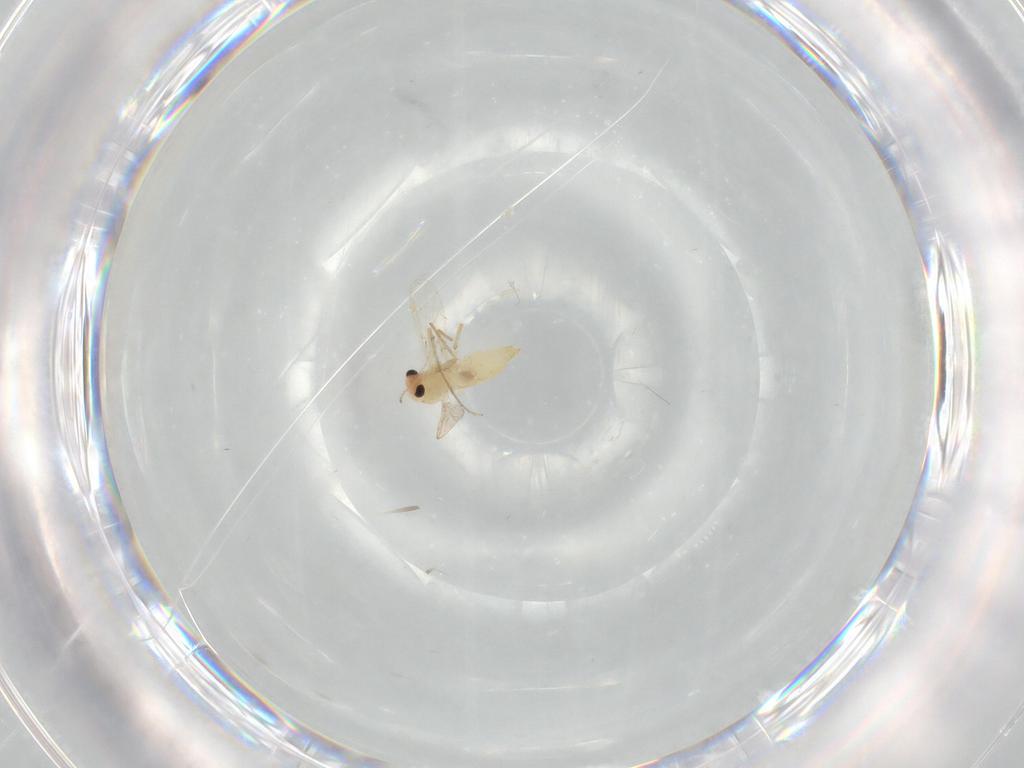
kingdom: Animalia
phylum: Arthropoda
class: Insecta
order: Diptera
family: Chironomidae
